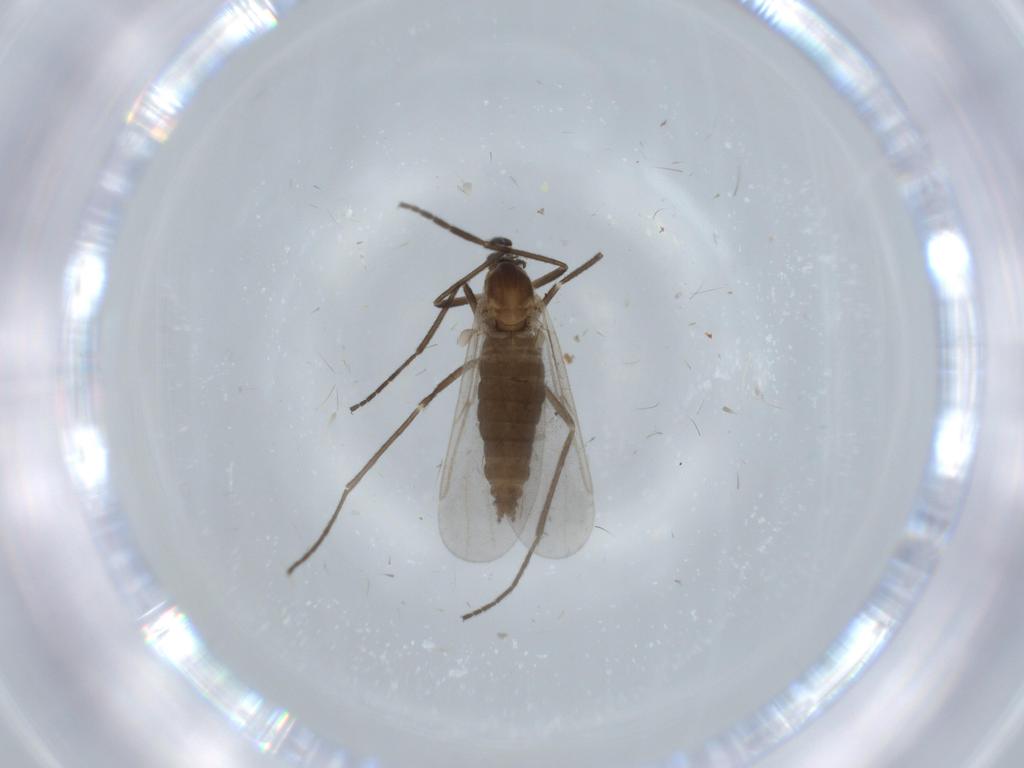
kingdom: Animalia
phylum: Arthropoda
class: Insecta
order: Diptera
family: Cecidomyiidae
